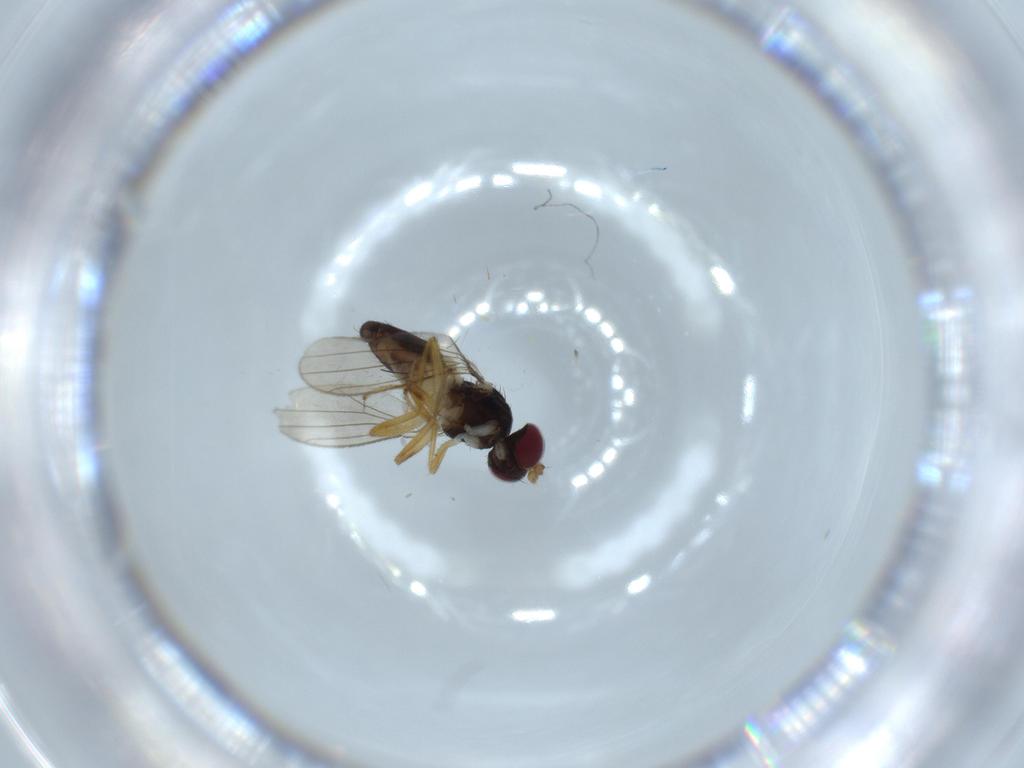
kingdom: Animalia
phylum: Arthropoda
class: Insecta
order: Diptera
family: Anthomyzidae
